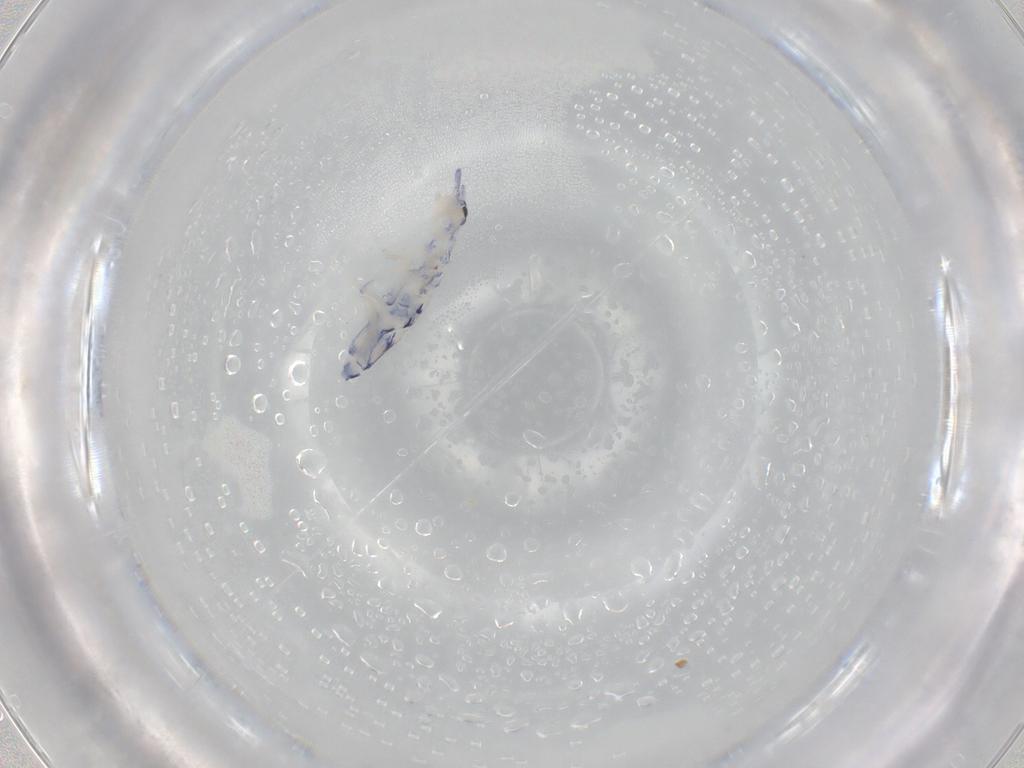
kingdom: Animalia
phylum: Arthropoda
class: Collembola
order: Entomobryomorpha
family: Entomobryidae
